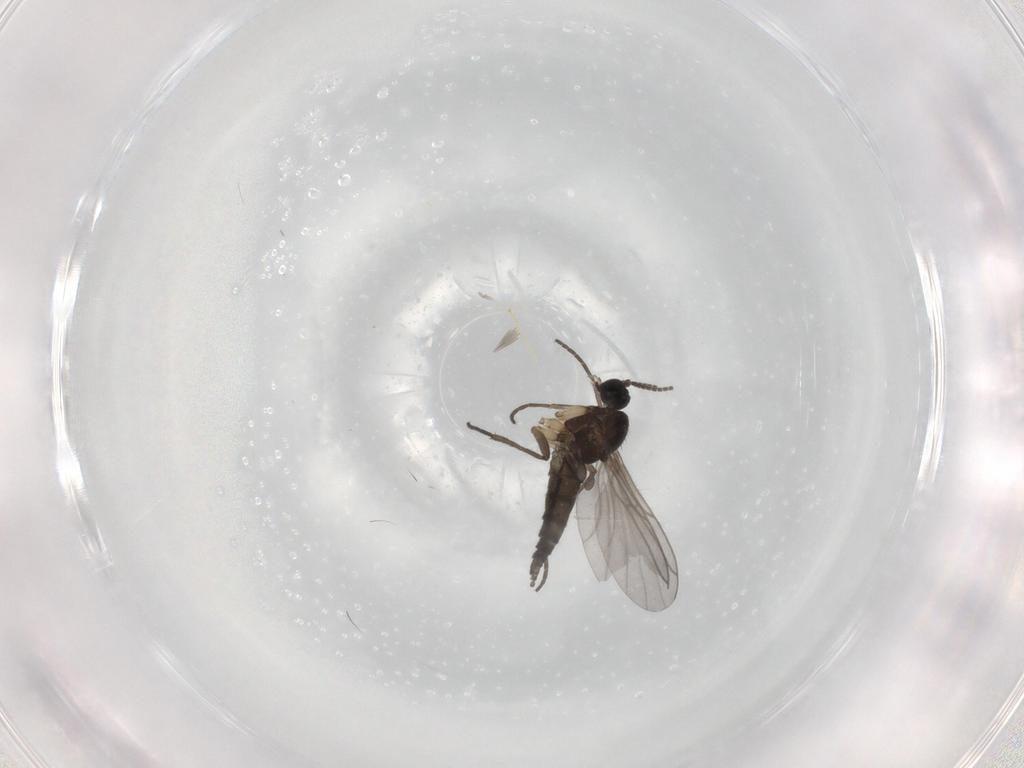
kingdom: Animalia
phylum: Arthropoda
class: Insecta
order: Diptera
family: Sciaridae
